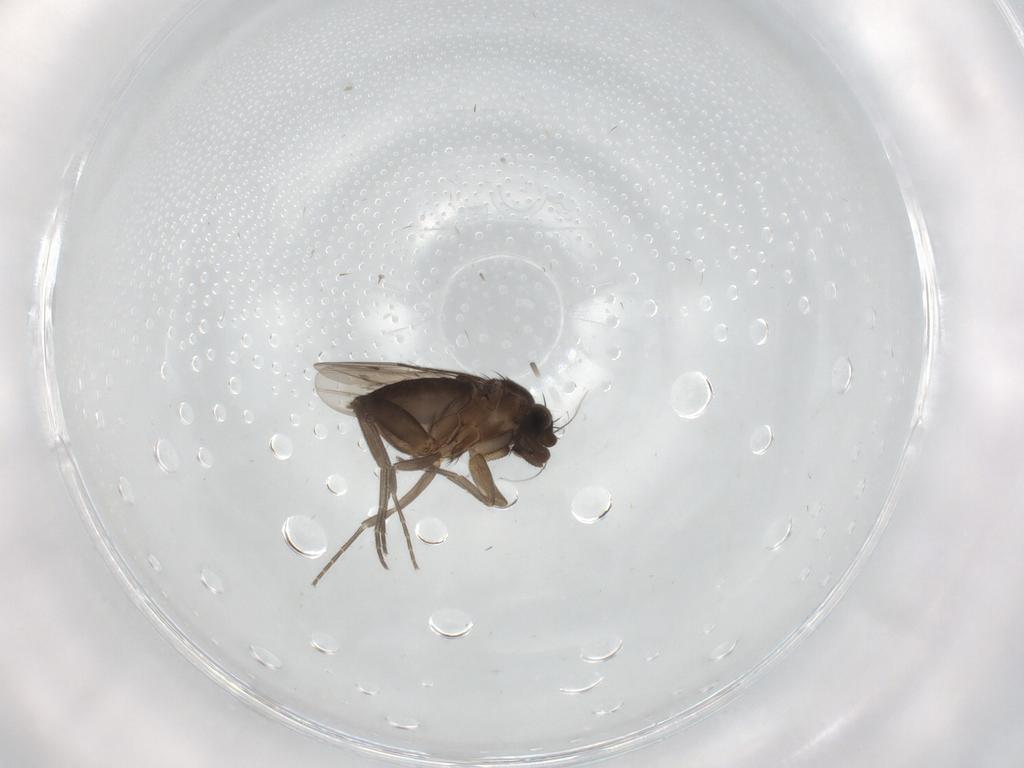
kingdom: Animalia
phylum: Arthropoda
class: Insecta
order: Diptera
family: Phoridae
